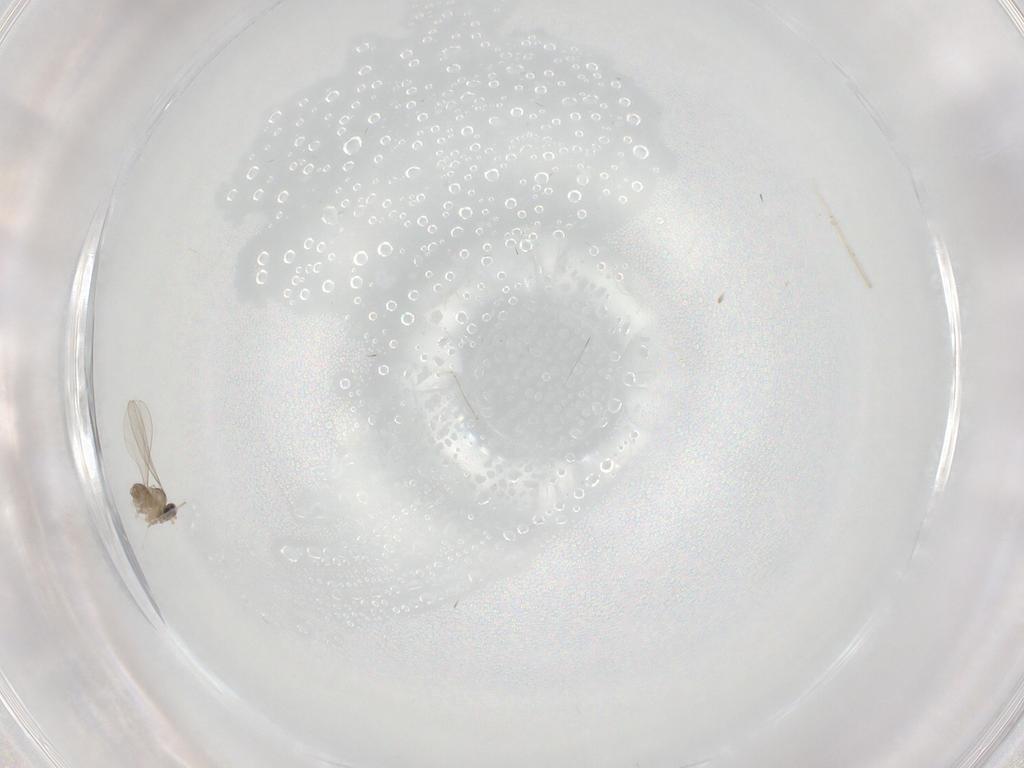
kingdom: Animalia
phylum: Arthropoda
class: Insecta
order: Diptera
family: Cecidomyiidae
